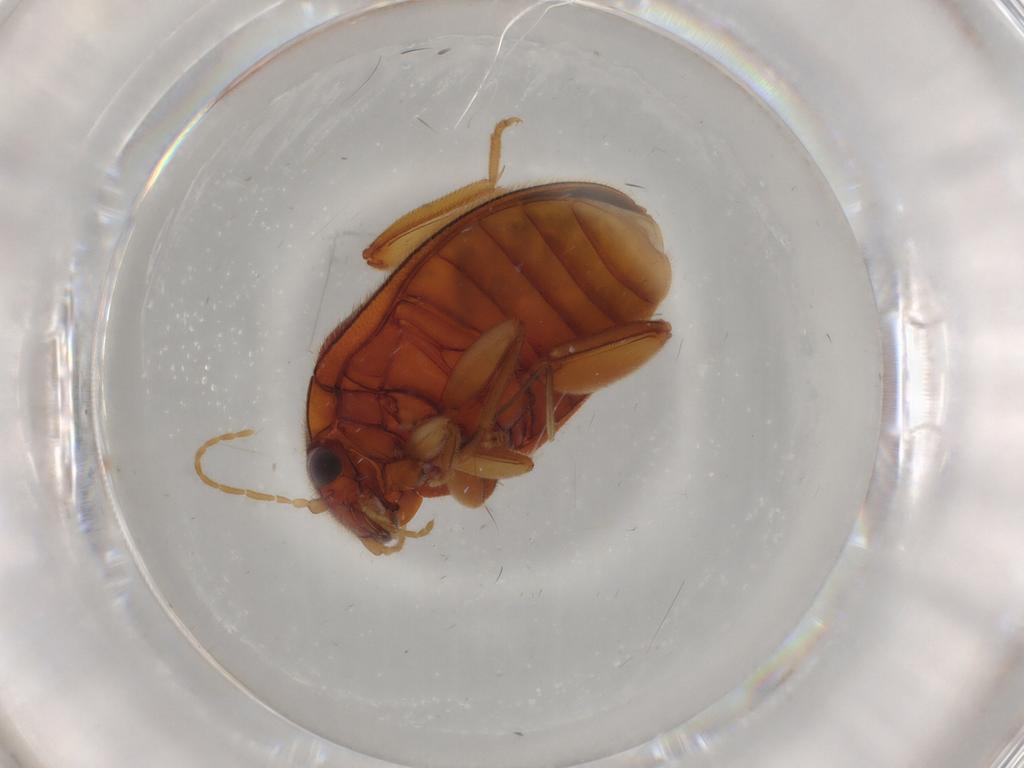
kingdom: Animalia
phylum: Arthropoda
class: Insecta
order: Coleoptera
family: Scirtidae
